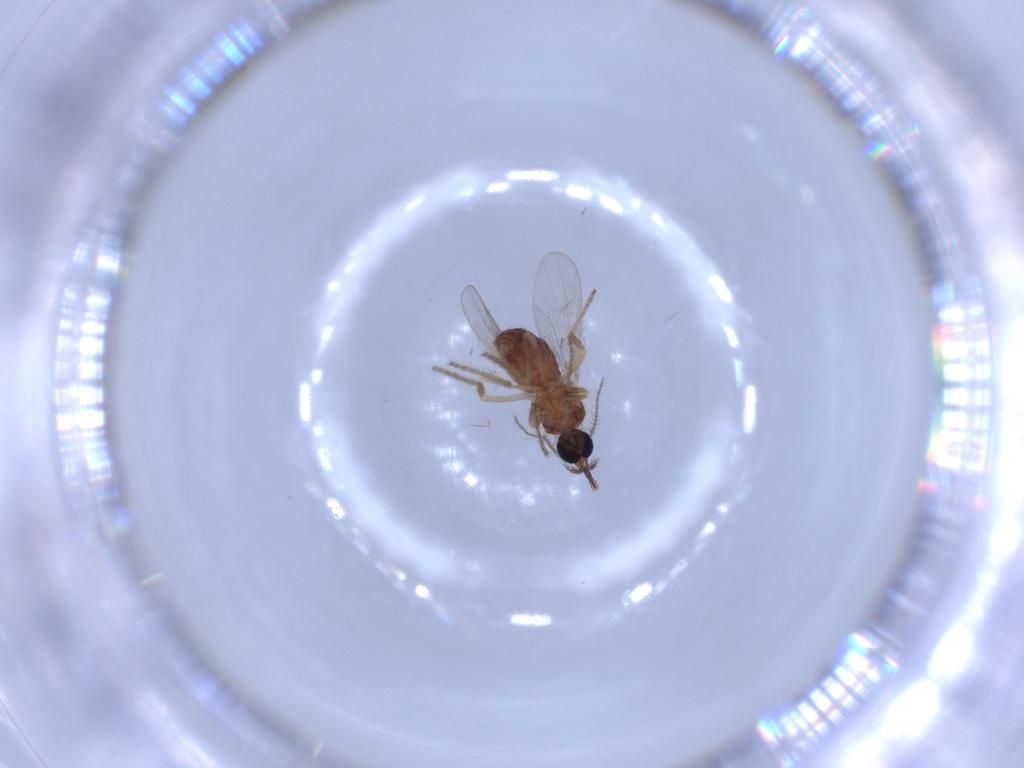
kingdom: Animalia
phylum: Arthropoda
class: Insecta
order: Diptera
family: Ceratopogonidae
